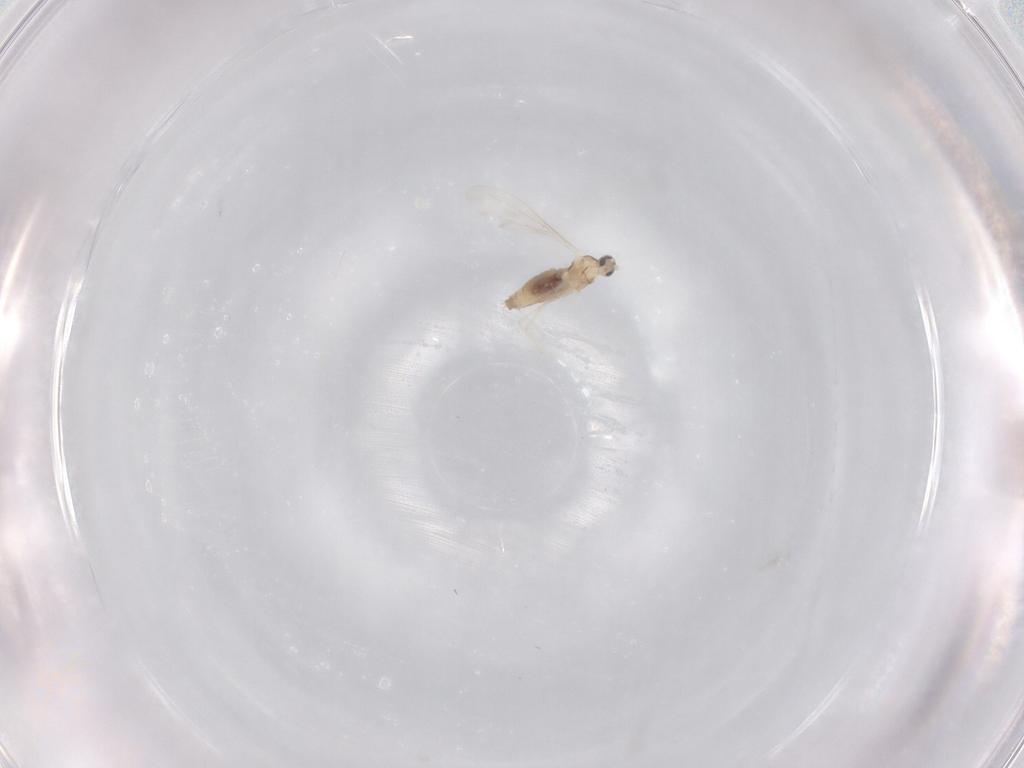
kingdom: Animalia
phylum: Arthropoda
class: Insecta
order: Diptera
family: Cecidomyiidae
